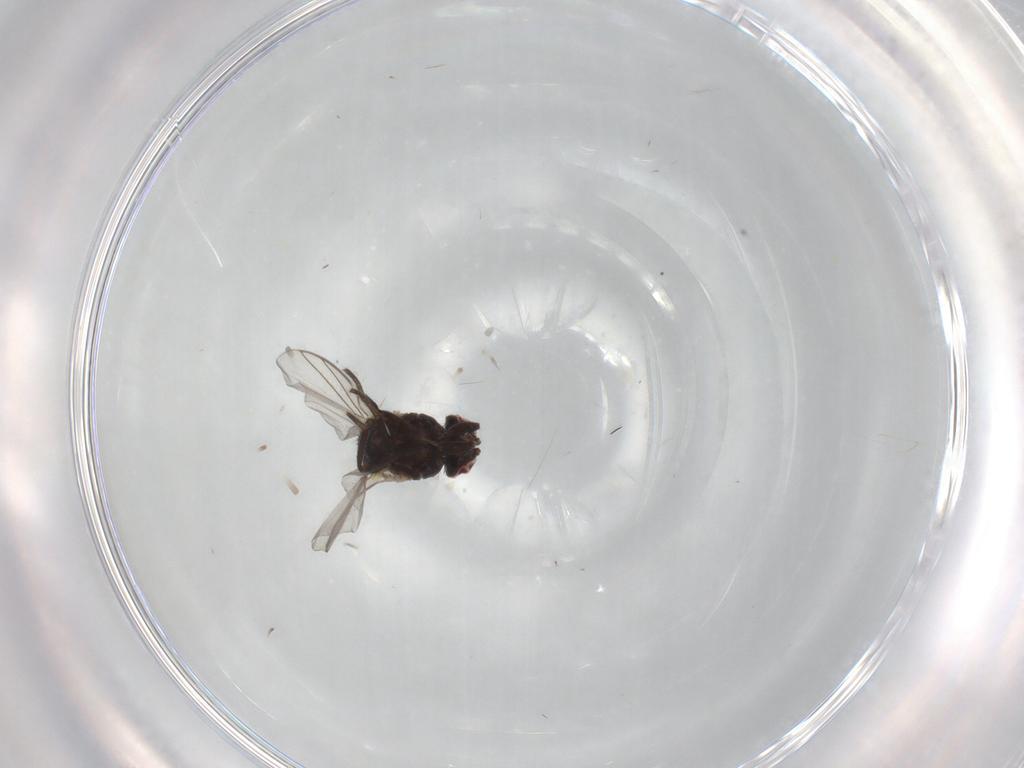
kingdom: Animalia
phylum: Arthropoda
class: Insecta
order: Diptera
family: Agromyzidae
